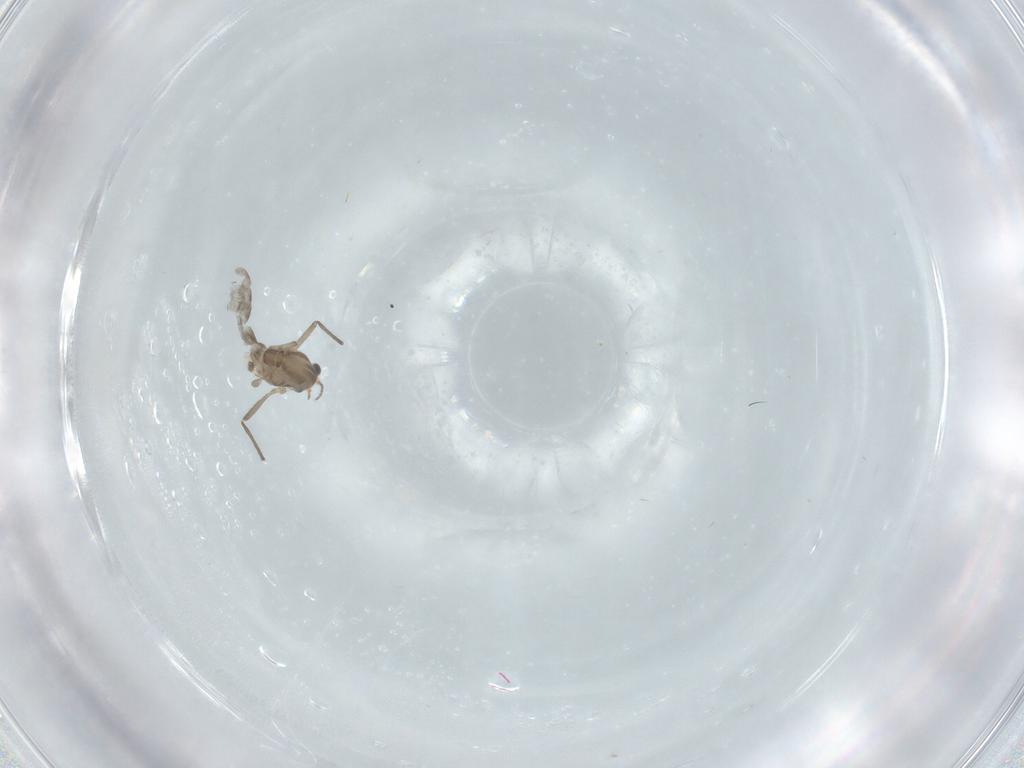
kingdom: Animalia
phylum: Arthropoda
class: Insecta
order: Diptera
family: Chironomidae
